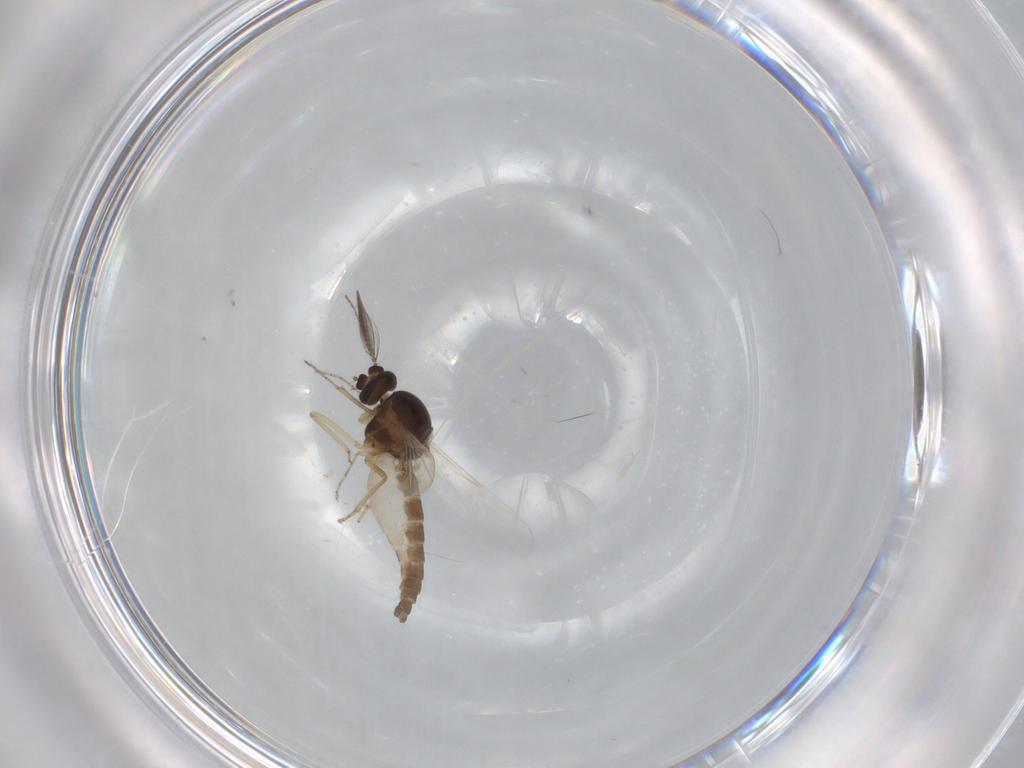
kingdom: Animalia
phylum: Arthropoda
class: Insecta
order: Diptera
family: Ceratopogonidae
